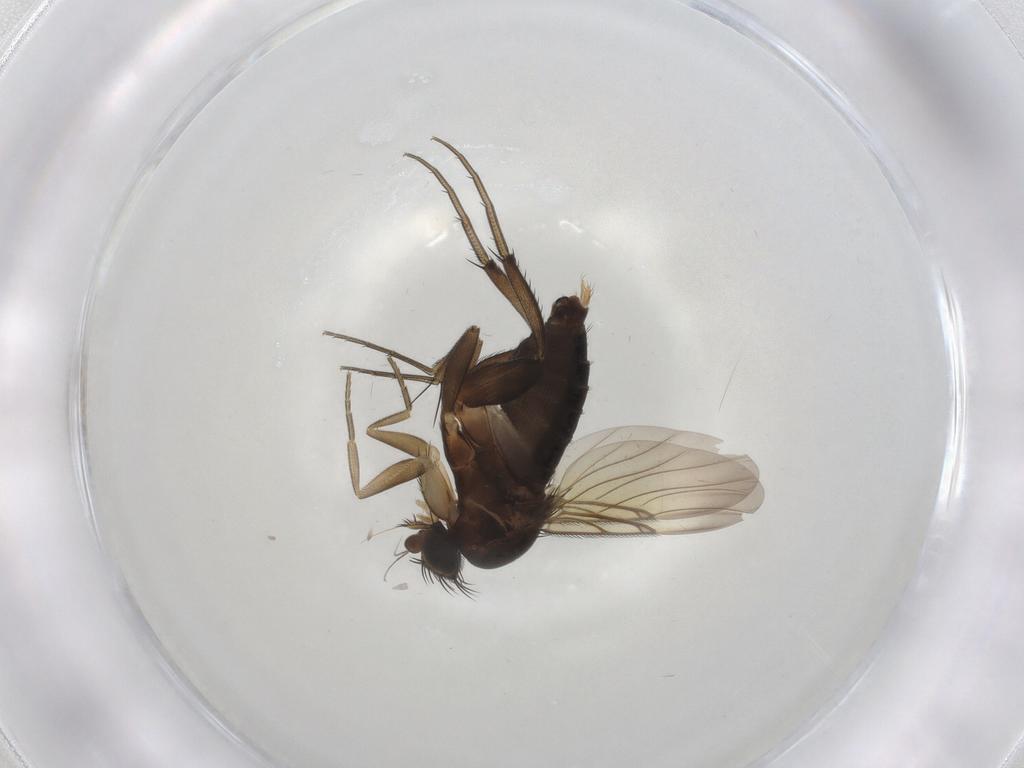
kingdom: Animalia
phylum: Arthropoda
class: Insecta
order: Diptera
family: Phoridae
